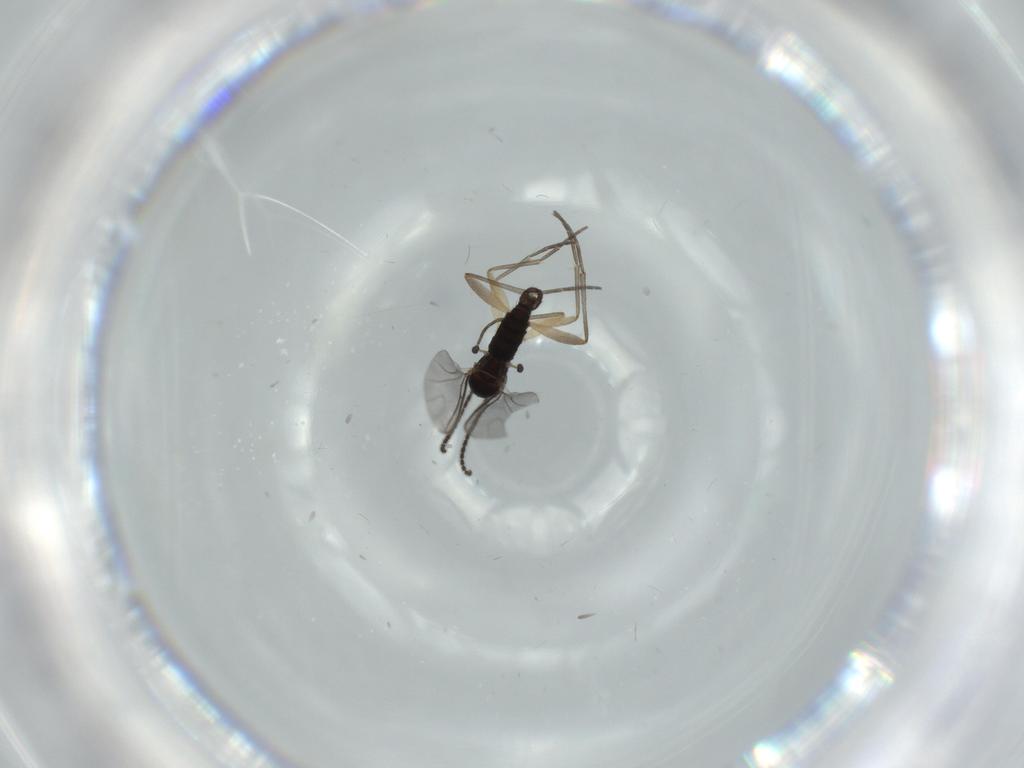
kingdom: Animalia
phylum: Arthropoda
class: Insecta
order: Diptera
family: Sciaridae
